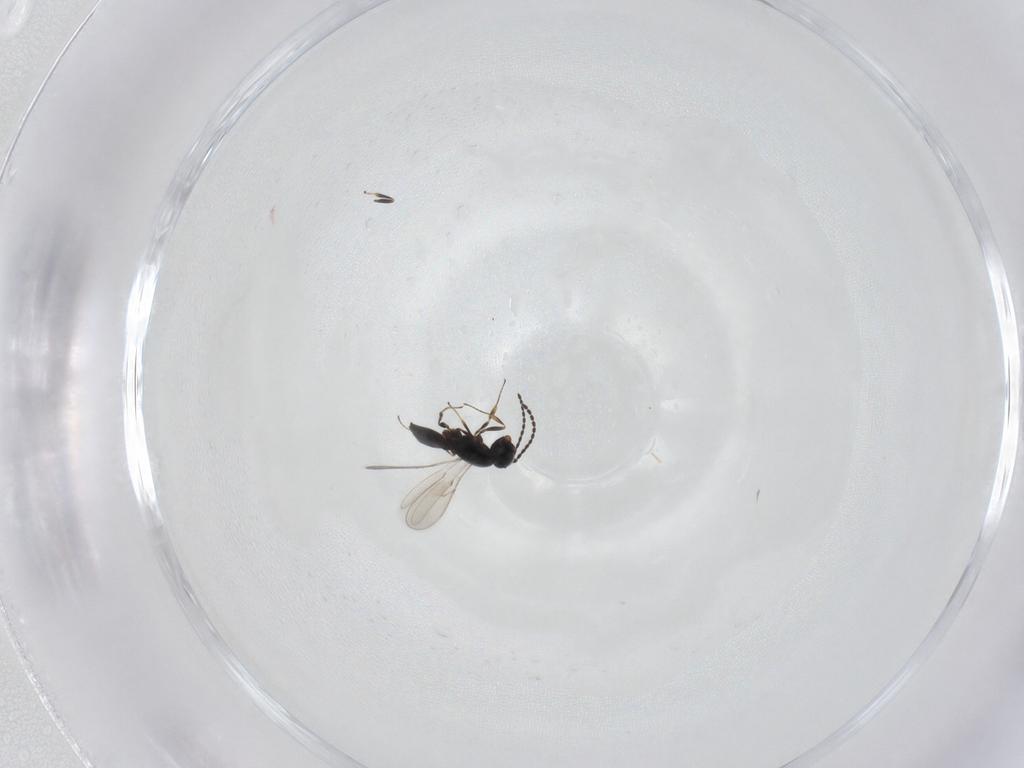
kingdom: Animalia
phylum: Arthropoda
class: Insecta
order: Hymenoptera
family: Scelionidae
